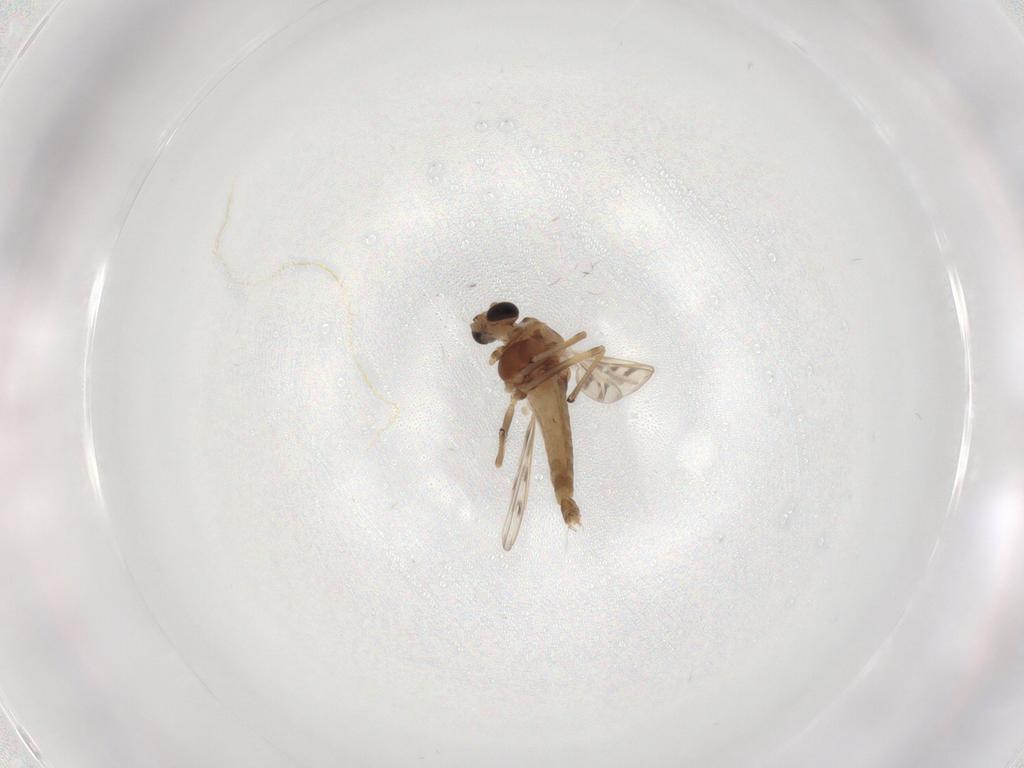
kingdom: Animalia
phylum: Arthropoda
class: Insecta
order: Diptera
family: Chironomidae
